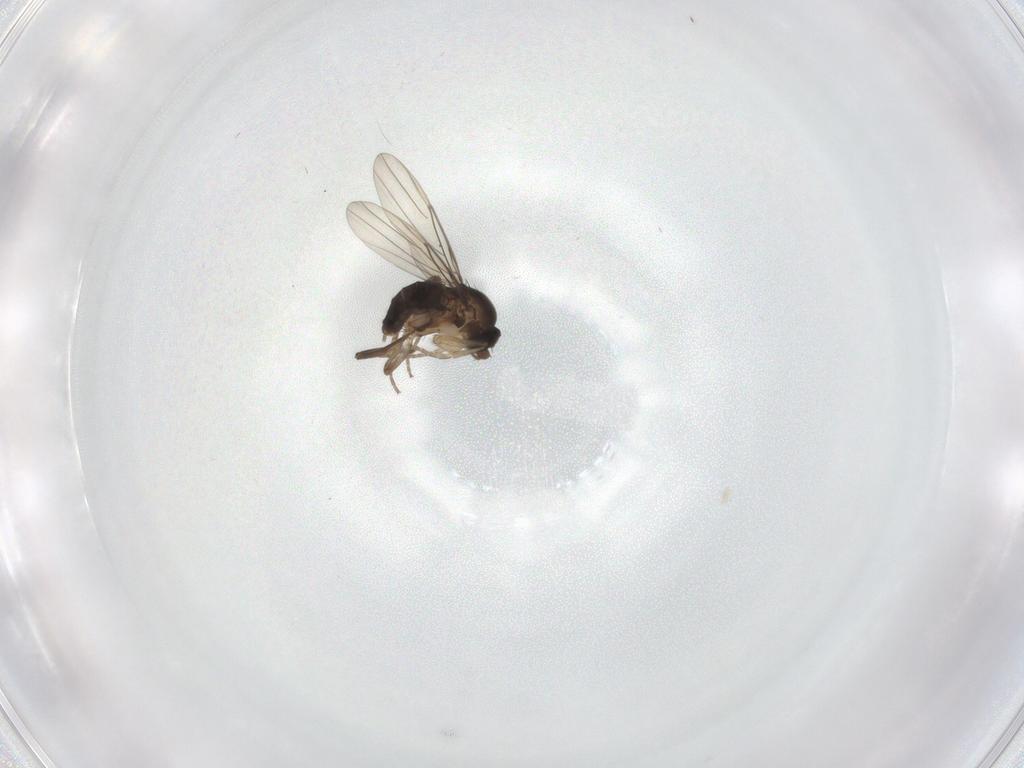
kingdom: Animalia
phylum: Arthropoda
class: Insecta
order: Diptera
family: Phoridae
